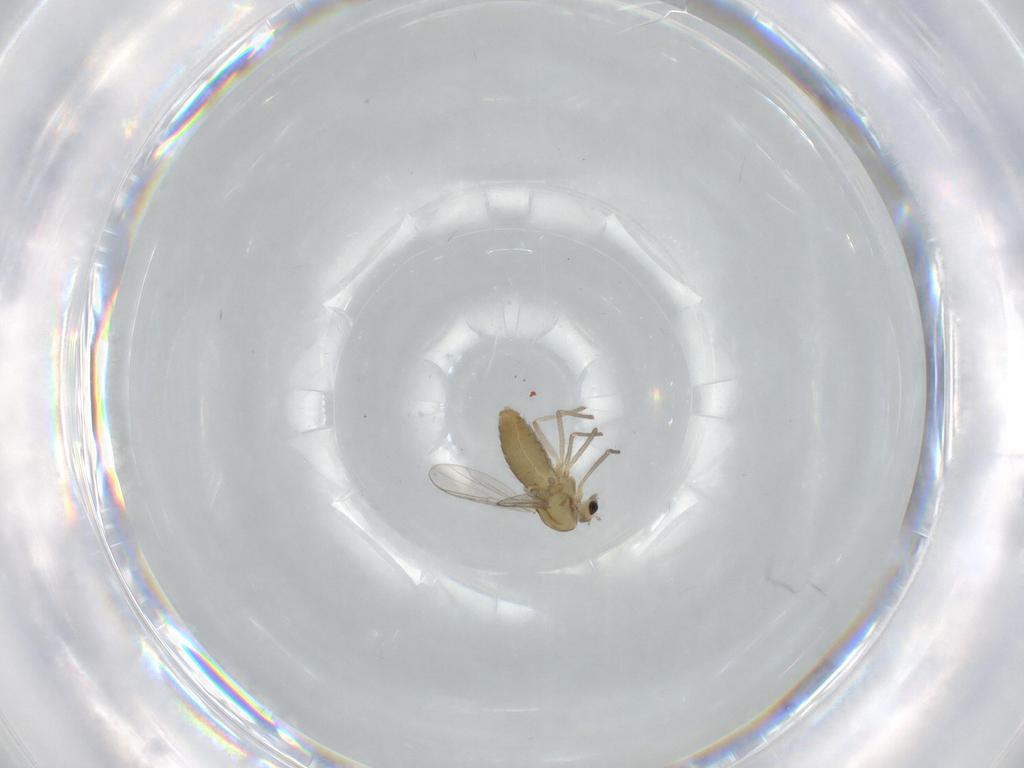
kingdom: Animalia
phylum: Arthropoda
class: Insecta
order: Diptera
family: Chironomidae
